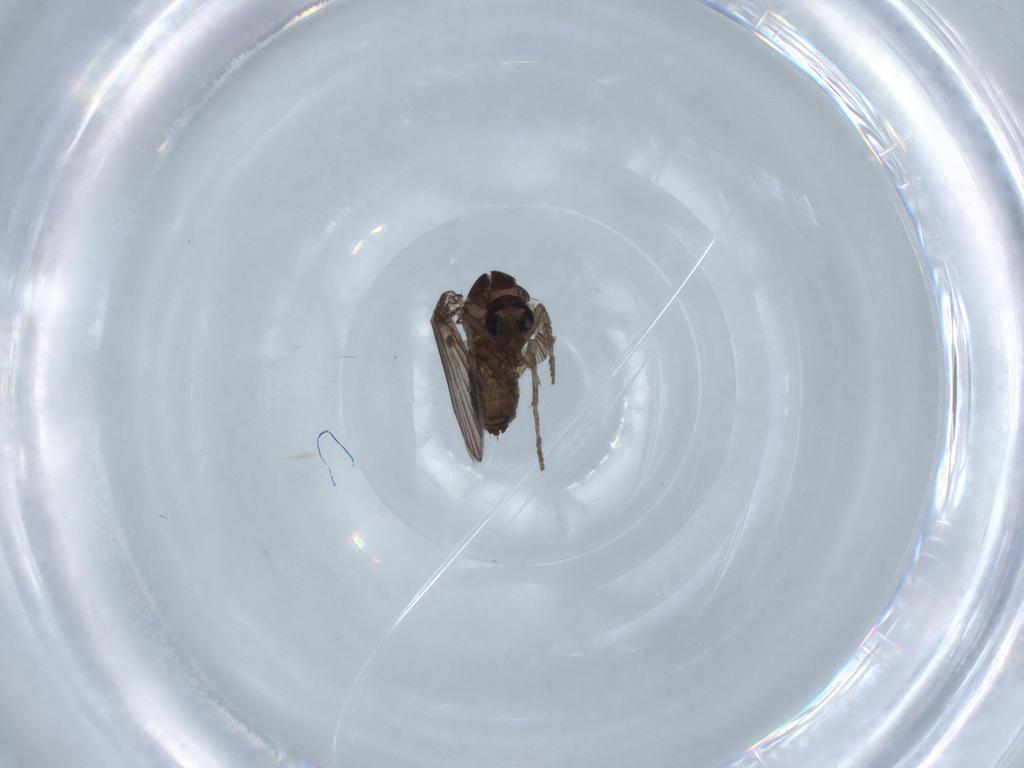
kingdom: Animalia
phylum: Arthropoda
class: Insecta
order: Diptera
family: Psychodidae
